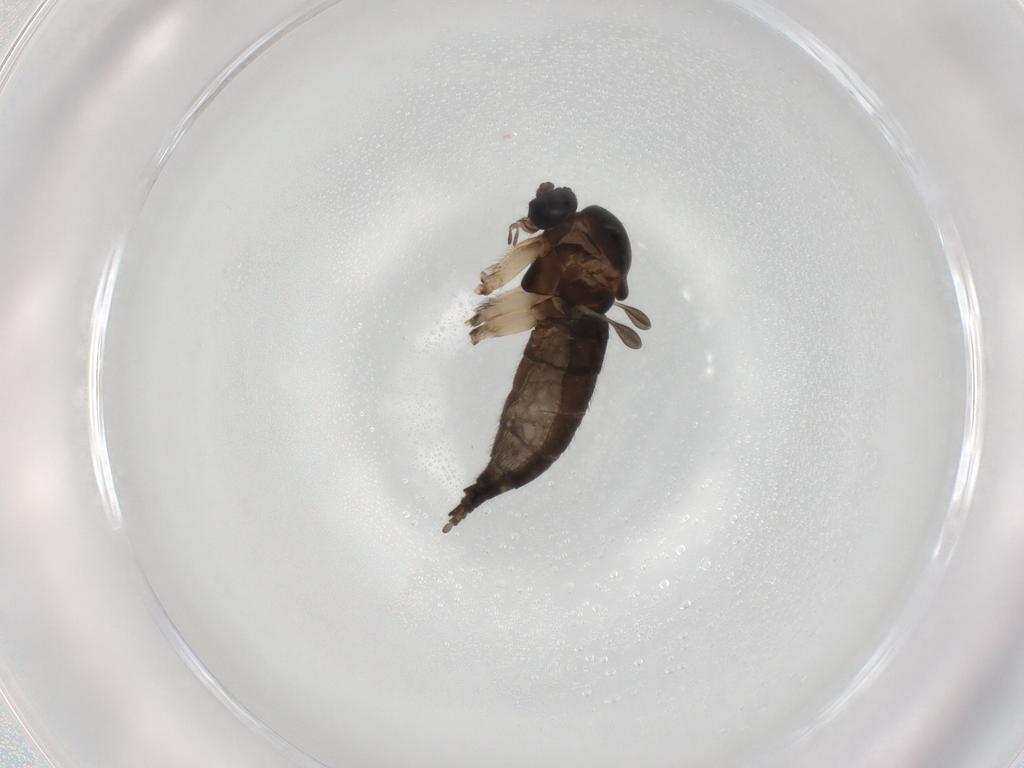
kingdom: Animalia
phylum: Arthropoda
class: Insecta
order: Diptera
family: Sciaridae
